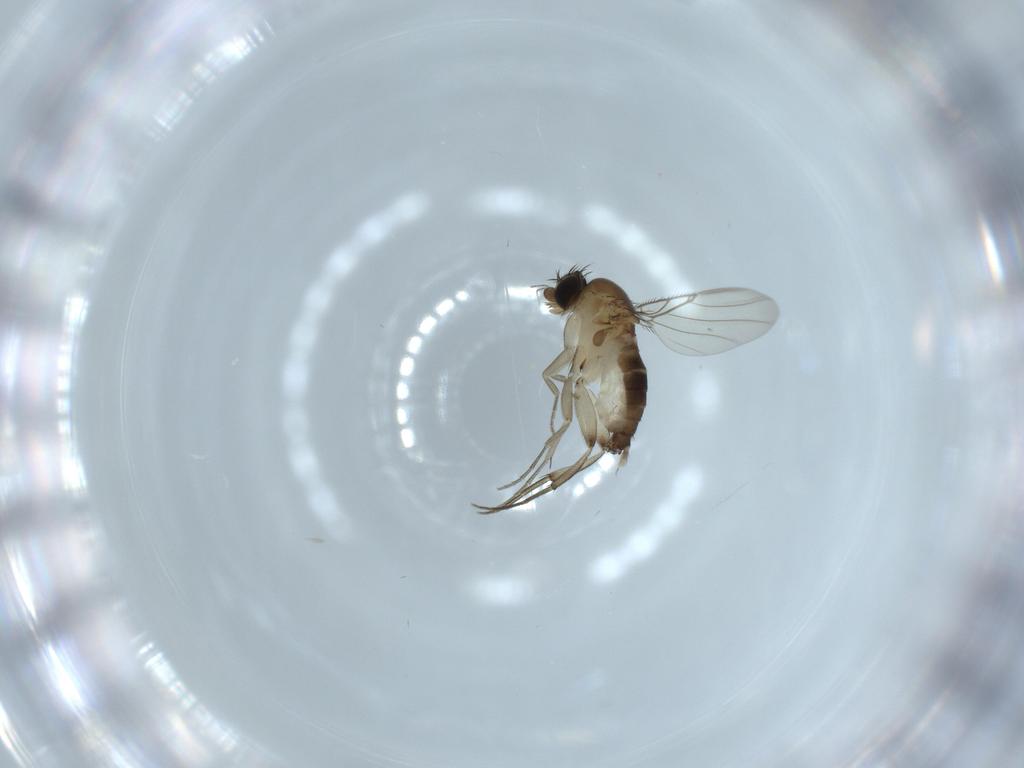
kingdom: Animalia
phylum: Arthropoda
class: Insecta
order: Diptera
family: Phoridae
